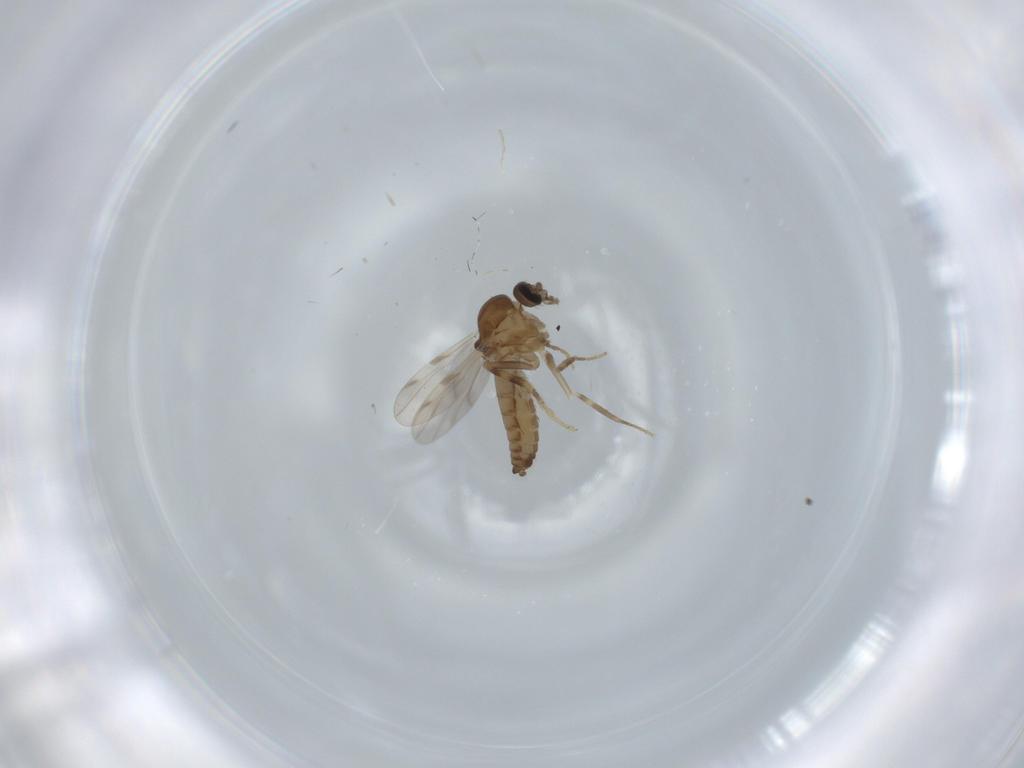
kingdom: Animalia
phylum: Arthropoda
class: Insecta
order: Diptera
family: Ceratopogonidae
